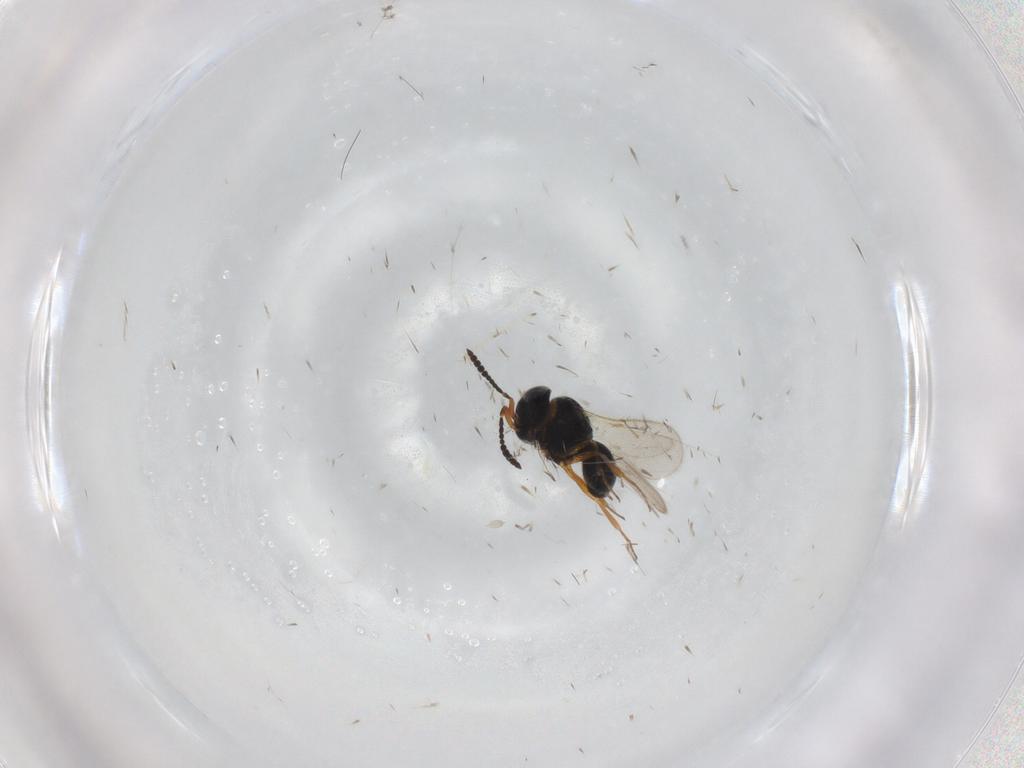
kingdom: Animalia
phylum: Arthropoda
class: Insecta
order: Hymenoptera
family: Scelionidae
